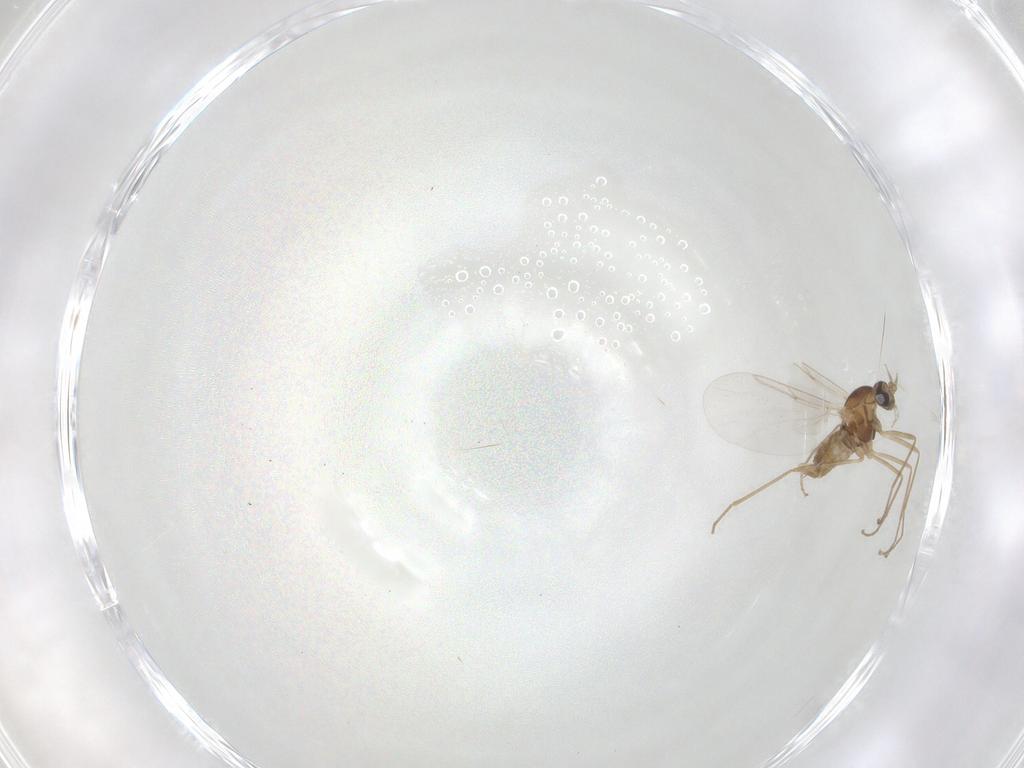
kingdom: Animalia
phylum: Arthropoda
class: Insecta
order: Diptera
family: Cecidomyiidae
